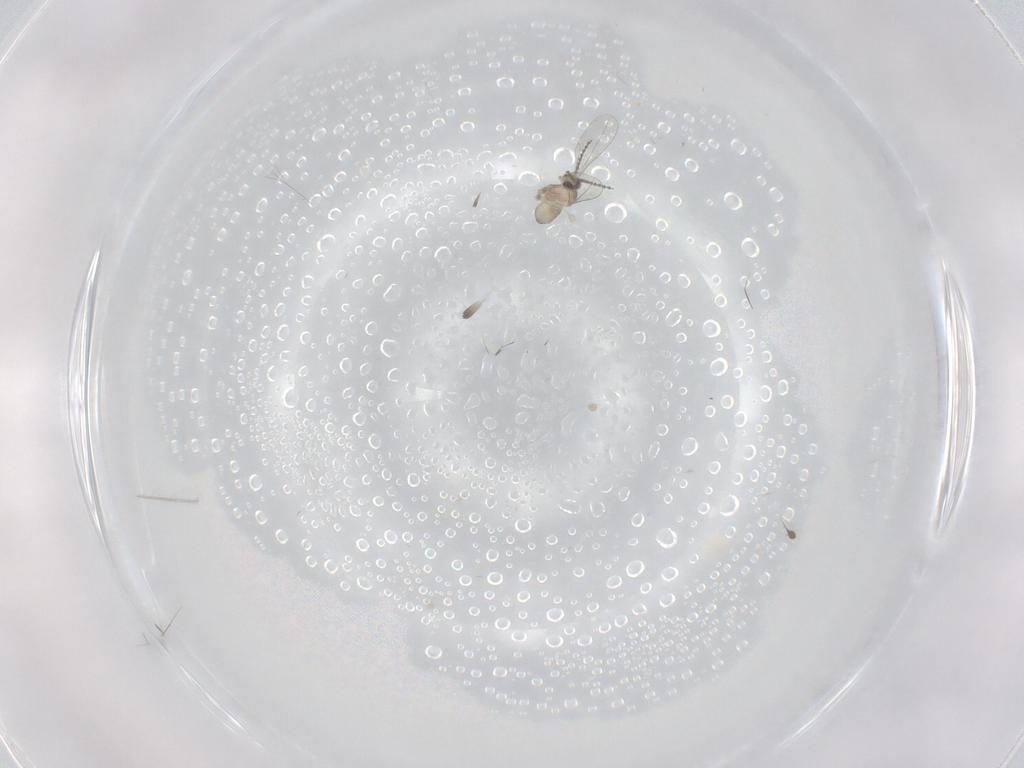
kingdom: Animalia
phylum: Arthropoda
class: Insecta
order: Diptera
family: Cecidomyiidae
